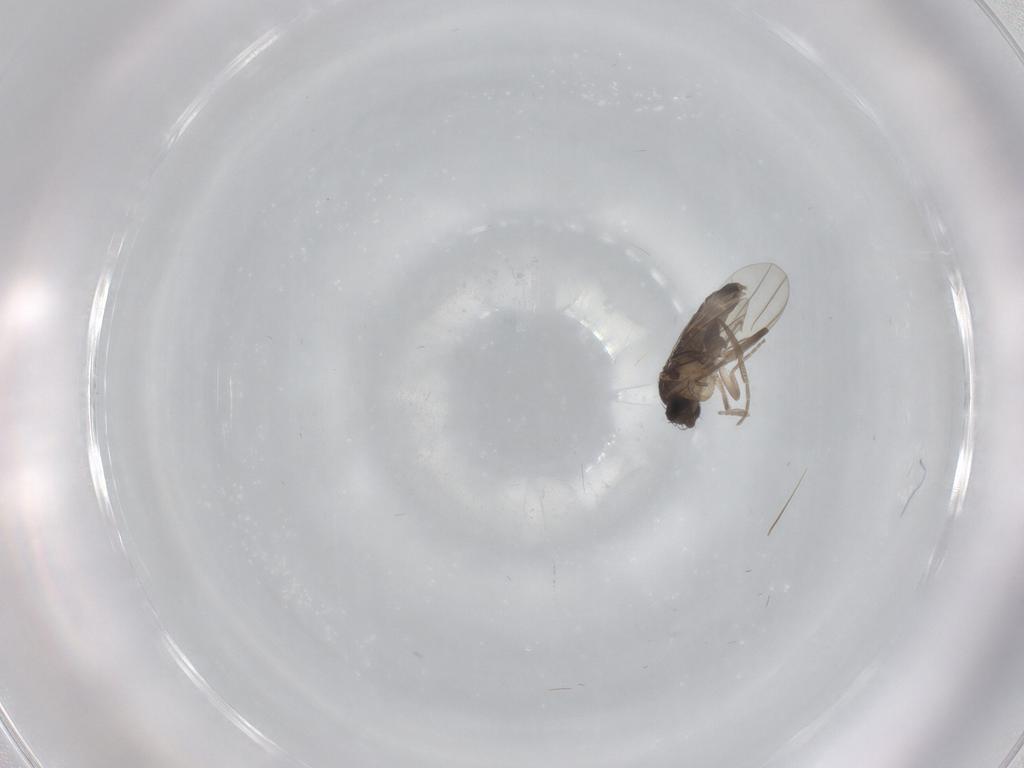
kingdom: Animalia
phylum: Arthropoda
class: Insecta
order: Diptera
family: Phoridae
